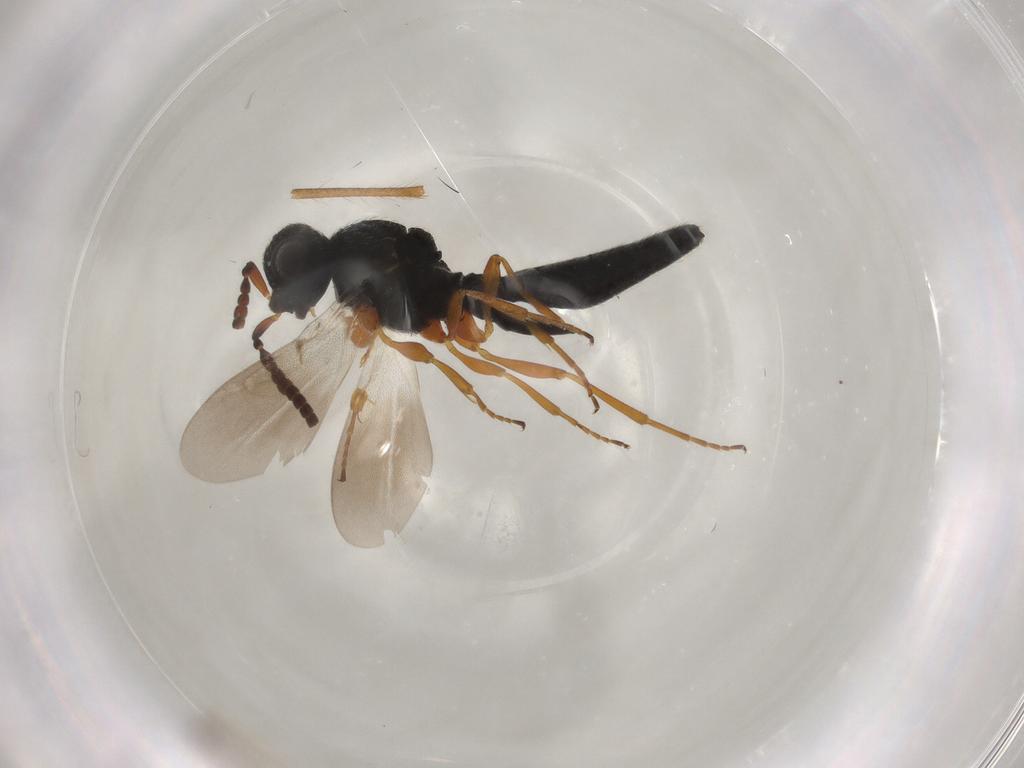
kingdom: Animalia
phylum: Arthropoda
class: Insecta
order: Hymenoptera
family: Scelionidae
